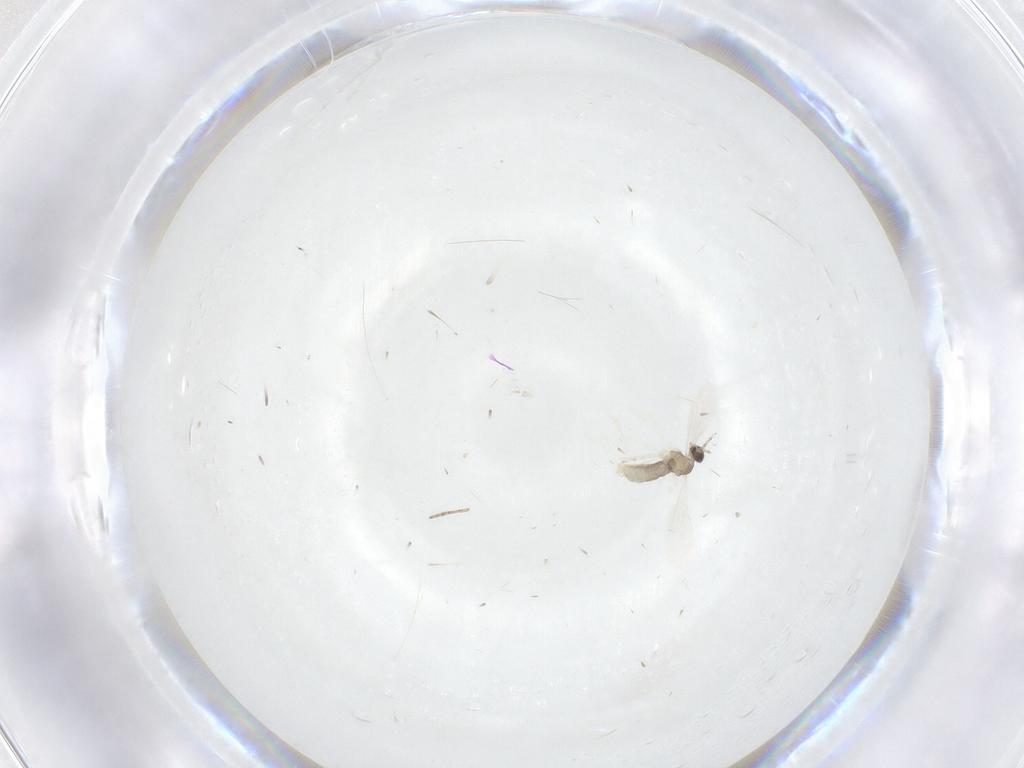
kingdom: Animalia
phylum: Arthropoda
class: Insecta
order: Diptera
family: Cecidomyiidae
